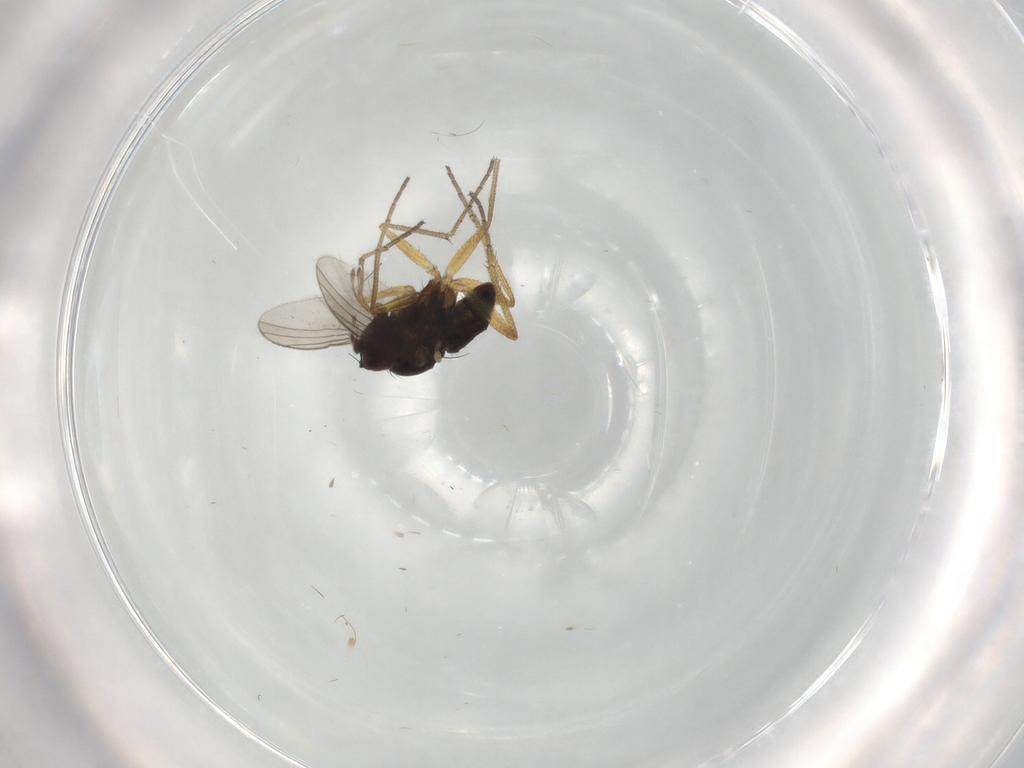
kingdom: Animalia
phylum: Arthropoda
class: Insecta
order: Diptera
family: Dolichopodidae
